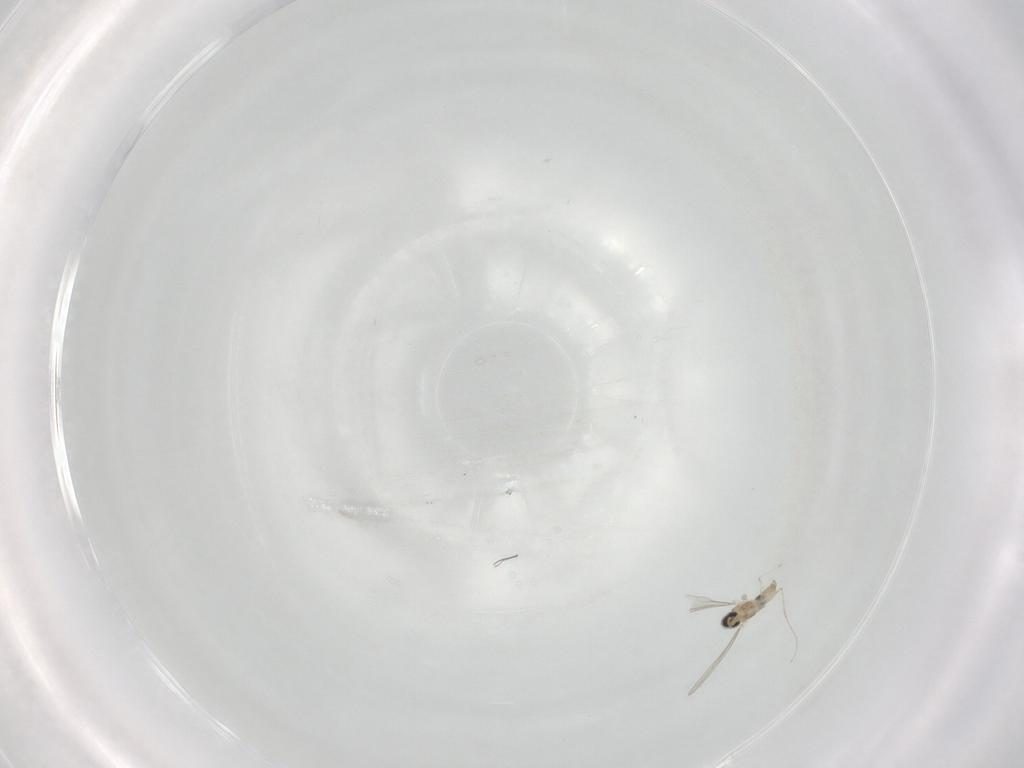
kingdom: Animalia
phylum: Arthropoda
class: Insecta
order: Diptera
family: Cecidomyiidae
